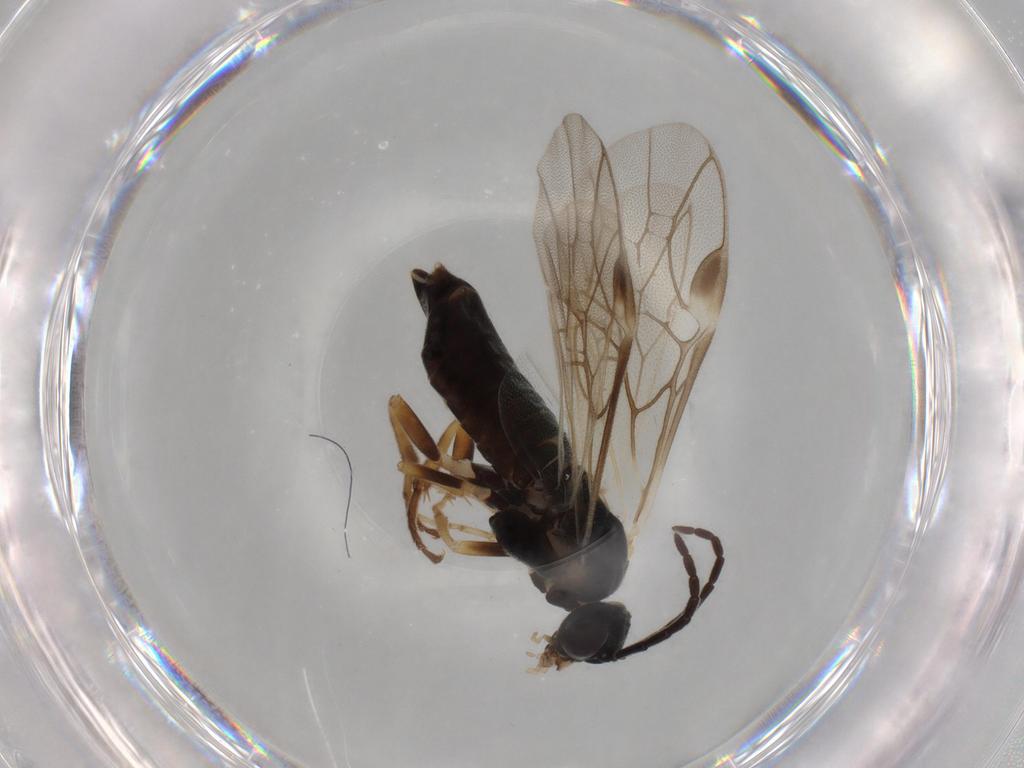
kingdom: Animalia
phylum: Arthropoda
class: Insecta
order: Hymenoptera
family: Tenthredinidae
